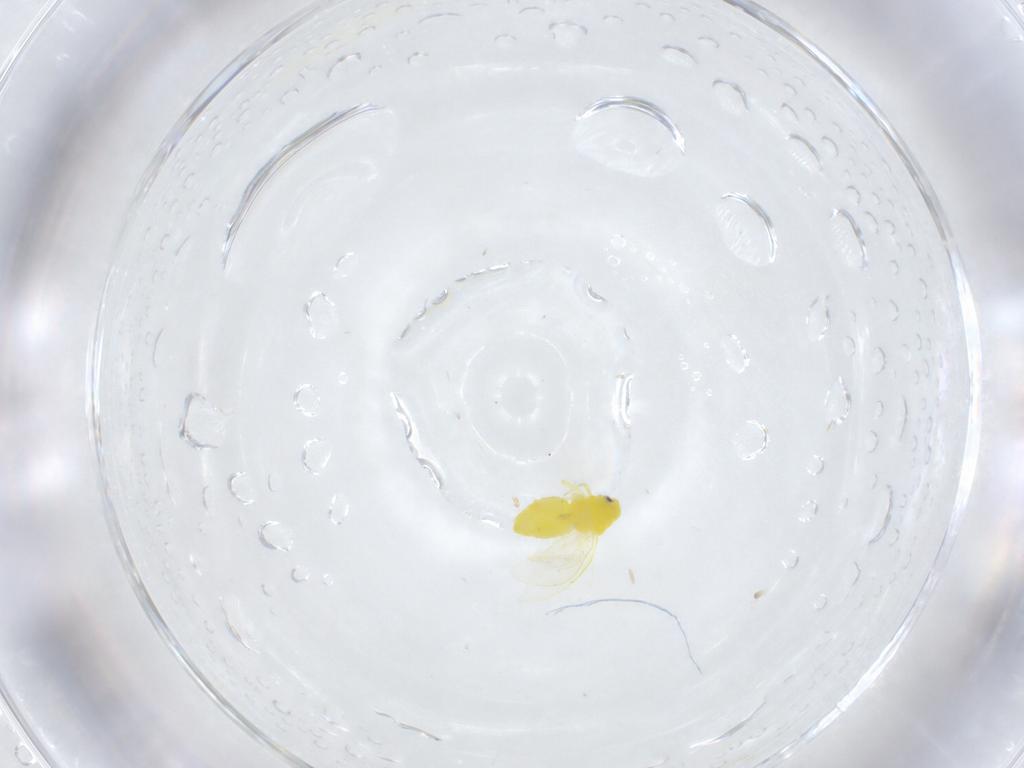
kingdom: Animalia
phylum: Arthropoda
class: Insecta
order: Hemiptera
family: Aleyrodidae
